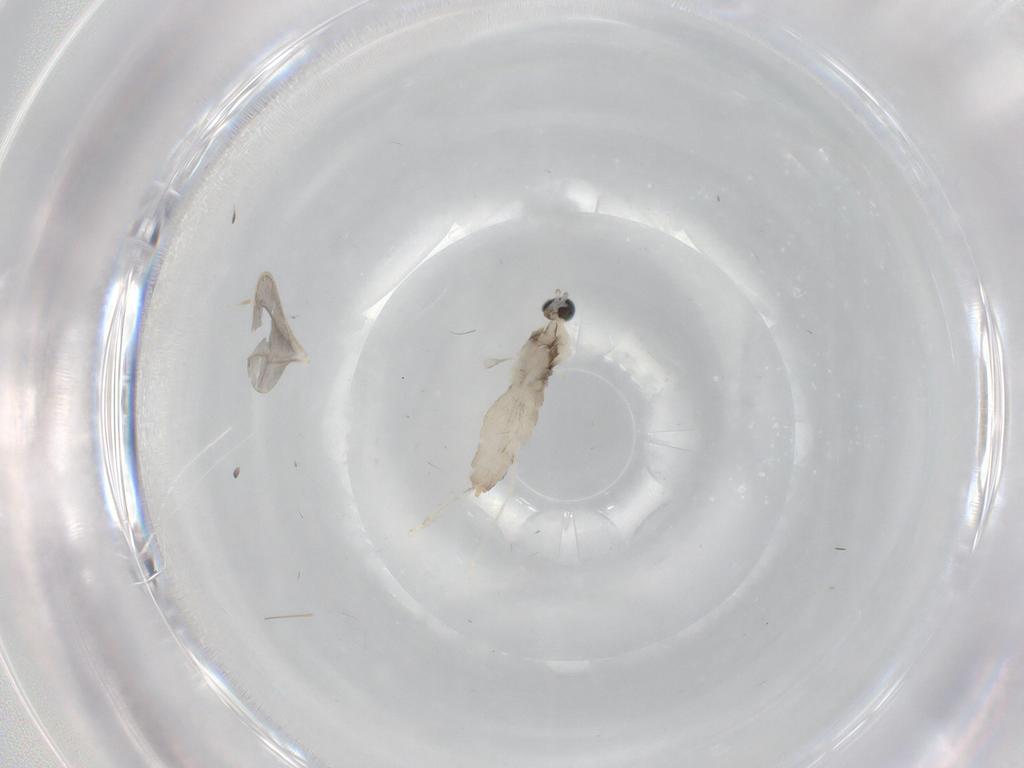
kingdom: Animalia
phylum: Arthropoda
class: Insecta
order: Diptera
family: Cecidomyiidae
